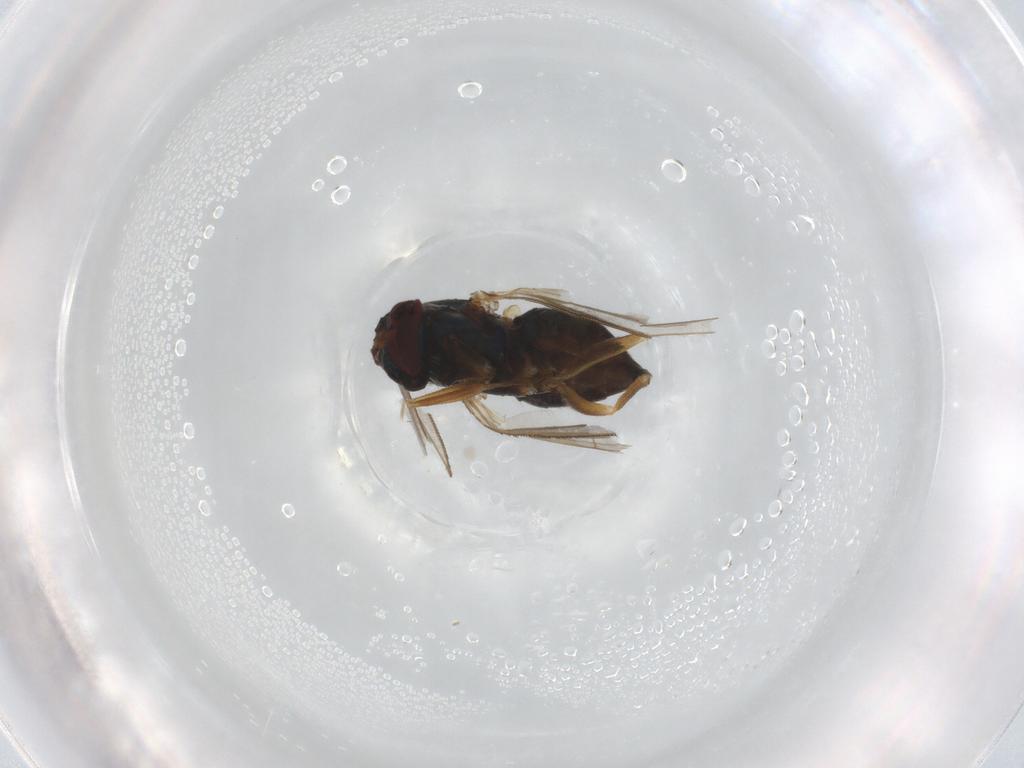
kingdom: Animalia
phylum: Arthropoda
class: Insecta
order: Diptera
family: Dolichopodidae
